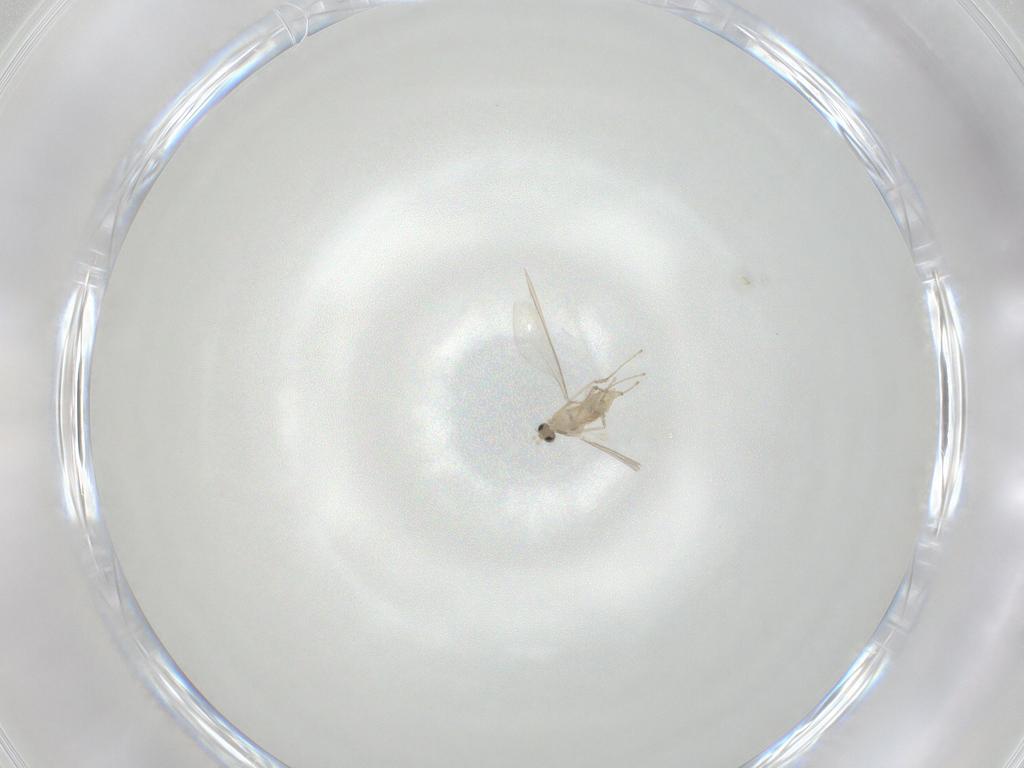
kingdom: Animalia
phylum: Arthropoda
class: Insecta
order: Diptera
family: Cecidomyiidae
